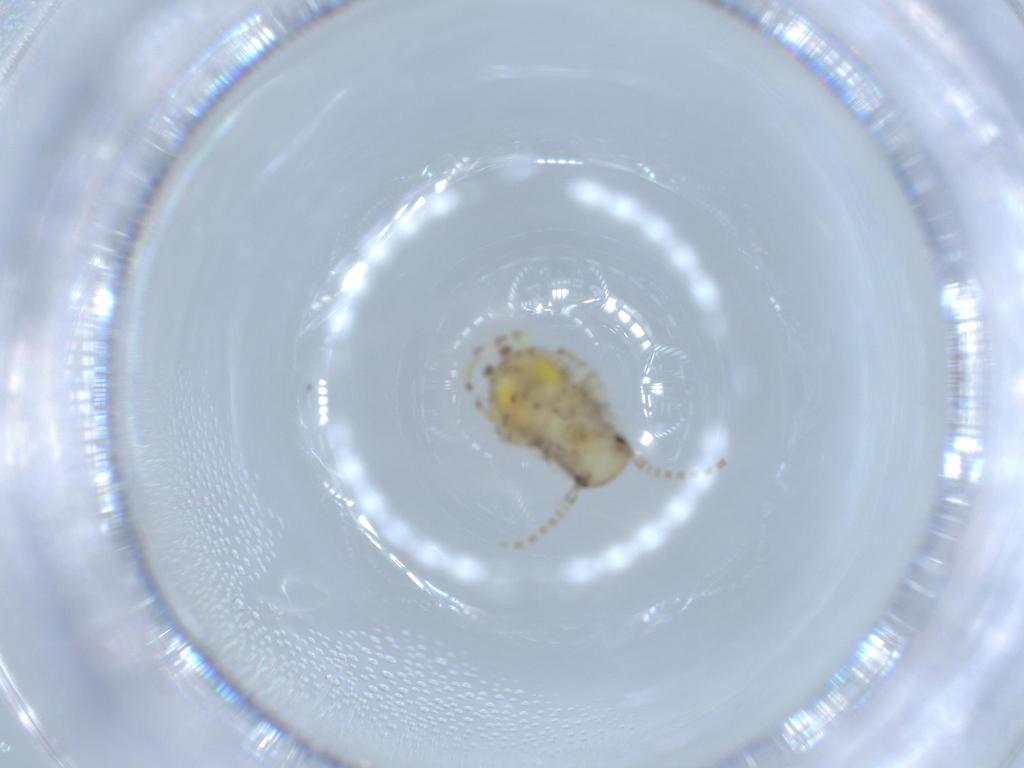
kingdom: Animalia
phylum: Arthropoda
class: Insecta
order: Blattodea
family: Ectobiidae
